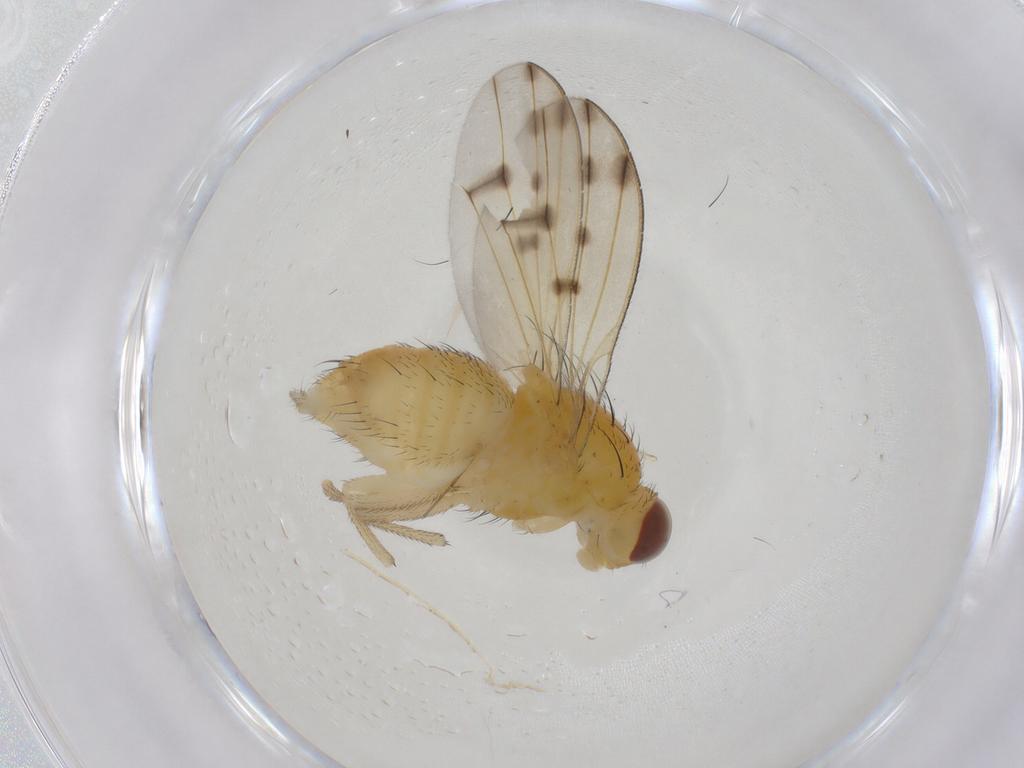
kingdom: Animalia
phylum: Arthropoda
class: Insecta
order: Diptera
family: Lauxaniidae
